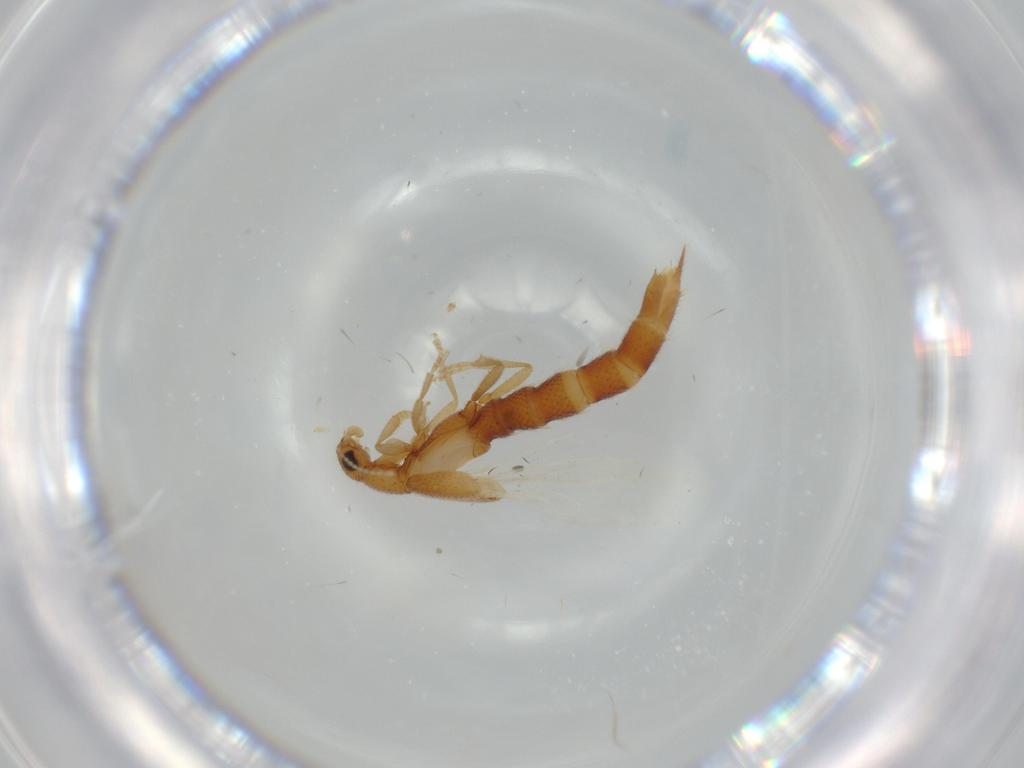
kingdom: Animalia
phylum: Arthropoda
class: Insecta
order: Coleoptera
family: Staphylinidae
